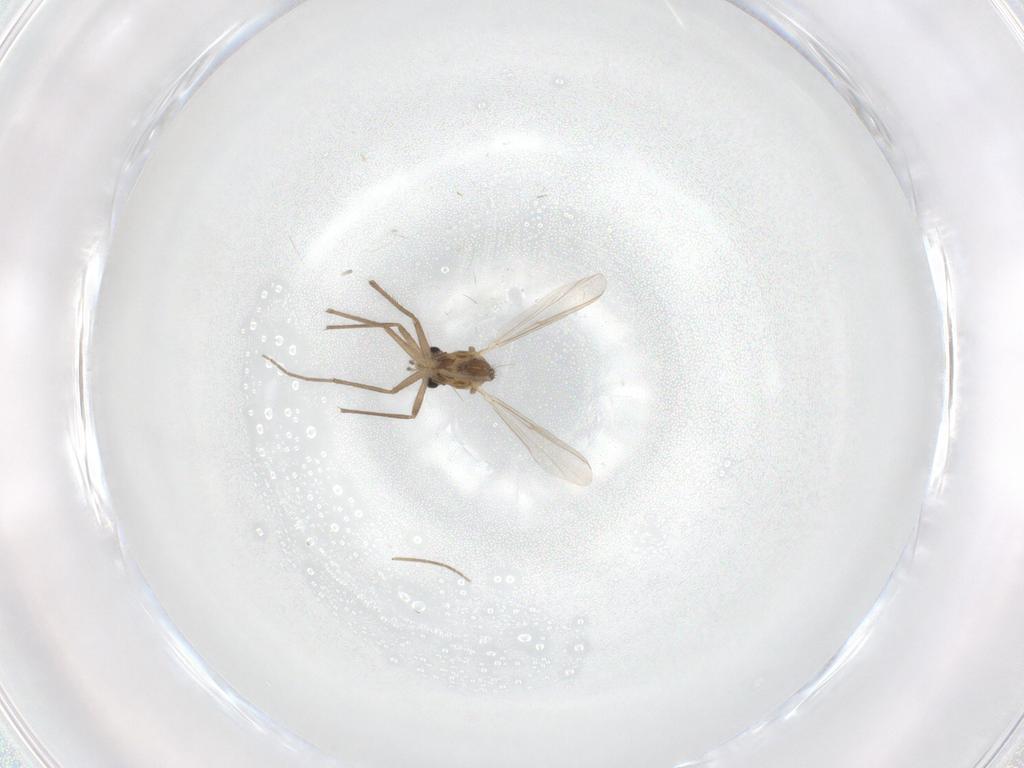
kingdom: Animalia
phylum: Arthropoda
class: Insecta
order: Diptera
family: Chironomidae
